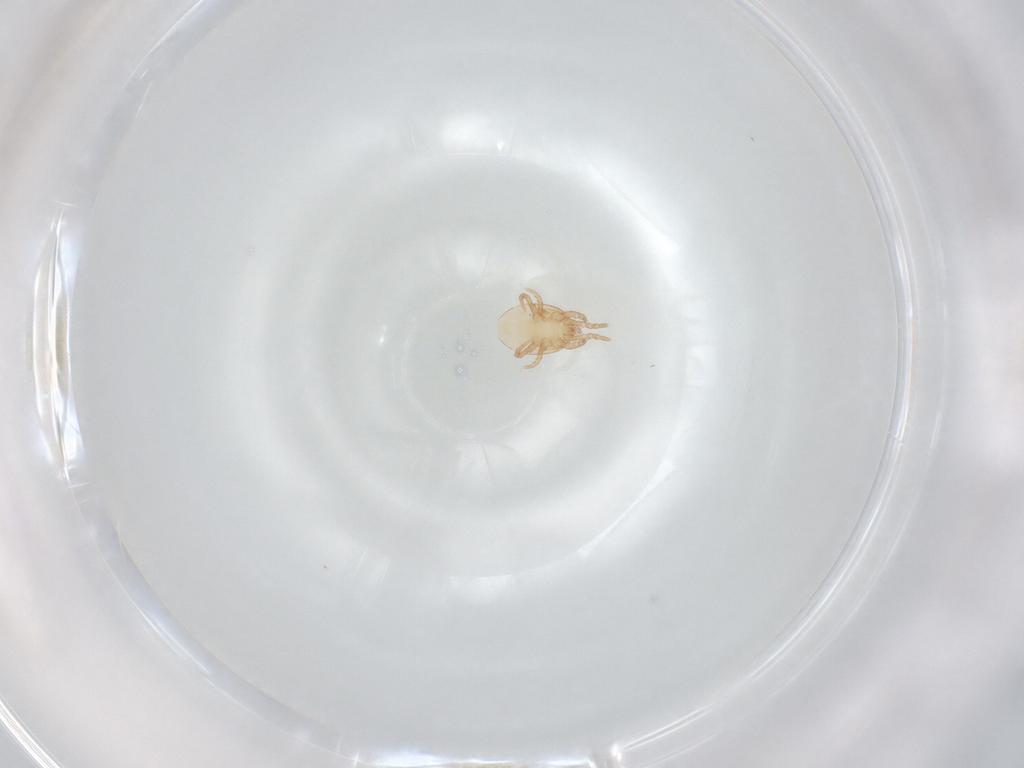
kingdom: Animalia
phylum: Arthropoda
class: Arachnida
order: Mesostigmata
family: Laelapidae
